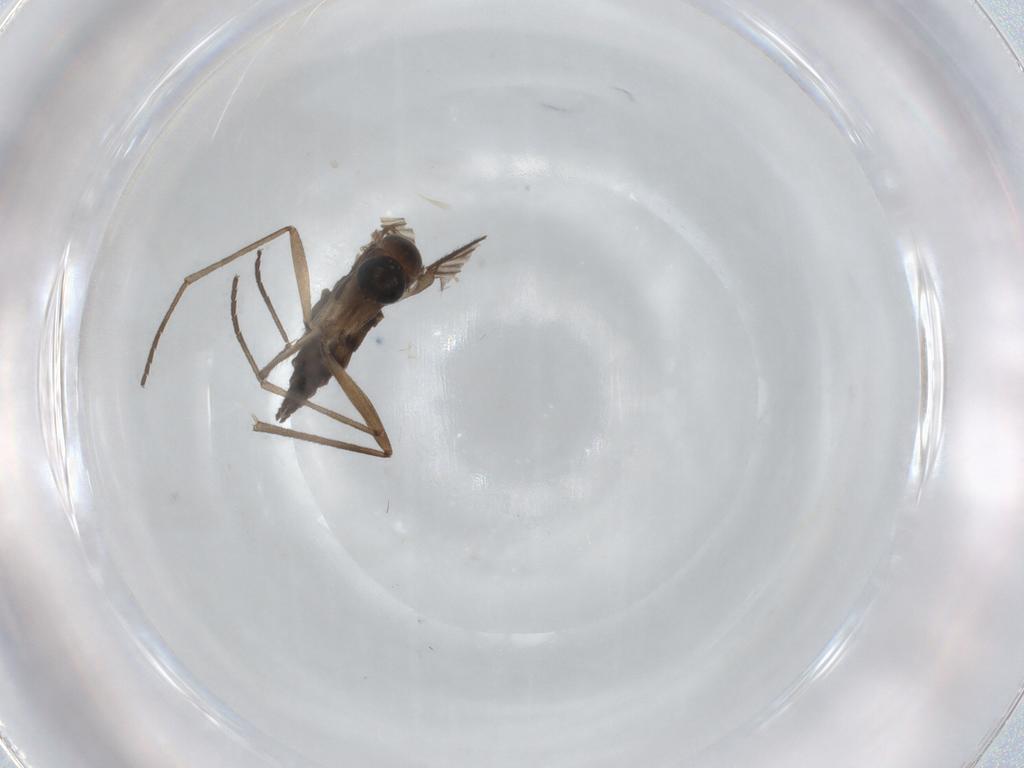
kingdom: Animalia
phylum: Arthropoda
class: Insecta
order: Diptera
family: Sciaridae
